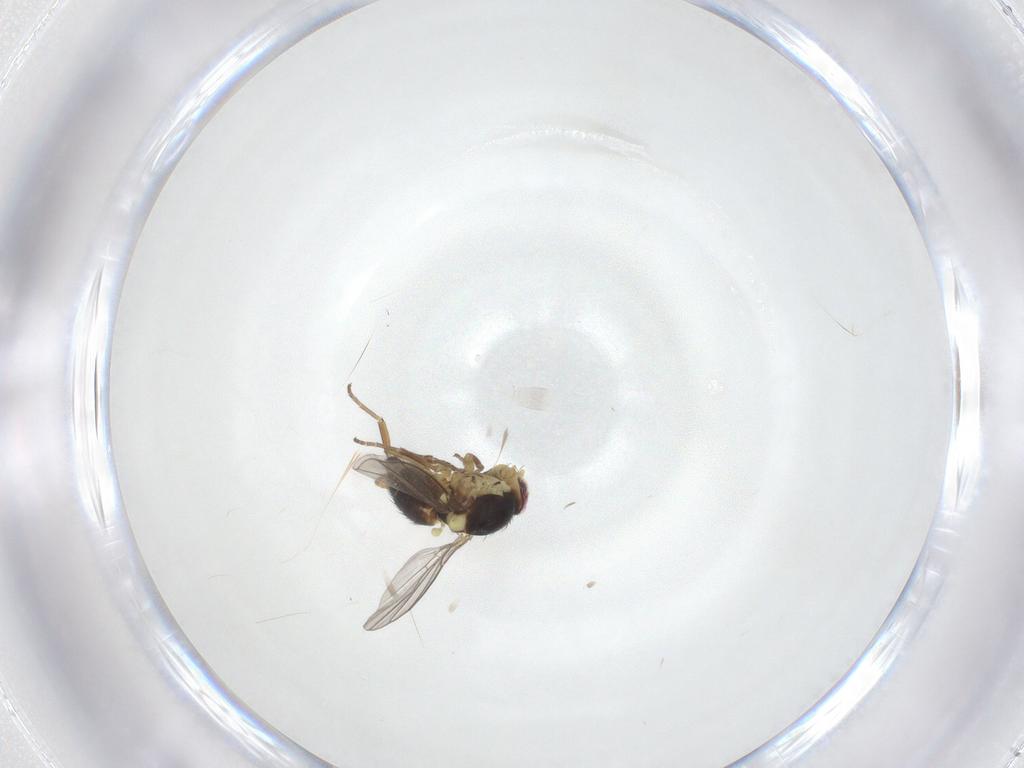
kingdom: Animalia
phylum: Arthropoda
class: Insecta
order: Diptera
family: Agromyzidae
